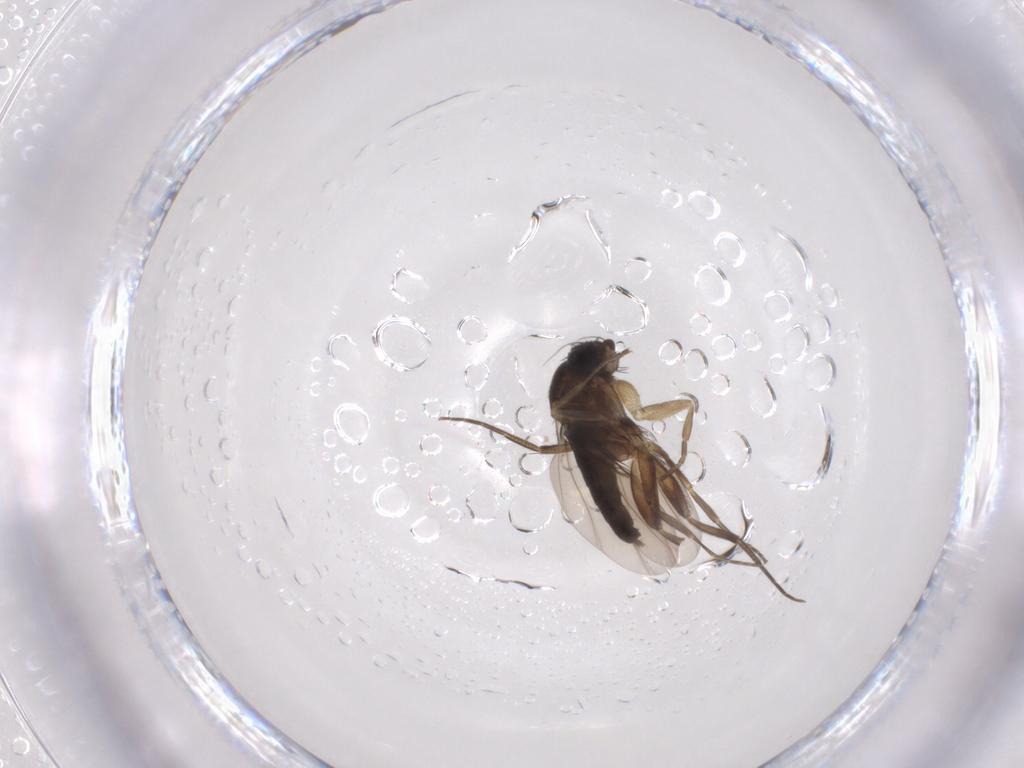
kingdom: Animalia
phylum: Arthropoda
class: Insecta
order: Diptera
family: Phoridae
